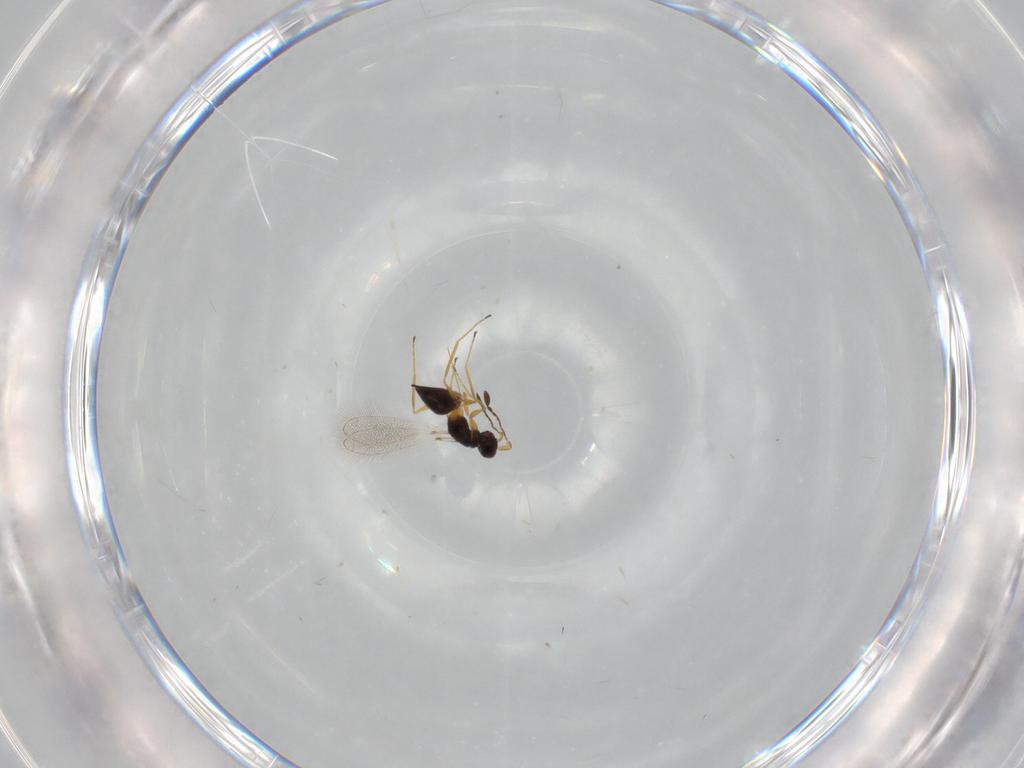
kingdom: Animalia
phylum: Arthropoda
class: Insecta
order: Hymenoptera
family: Mymaridae
